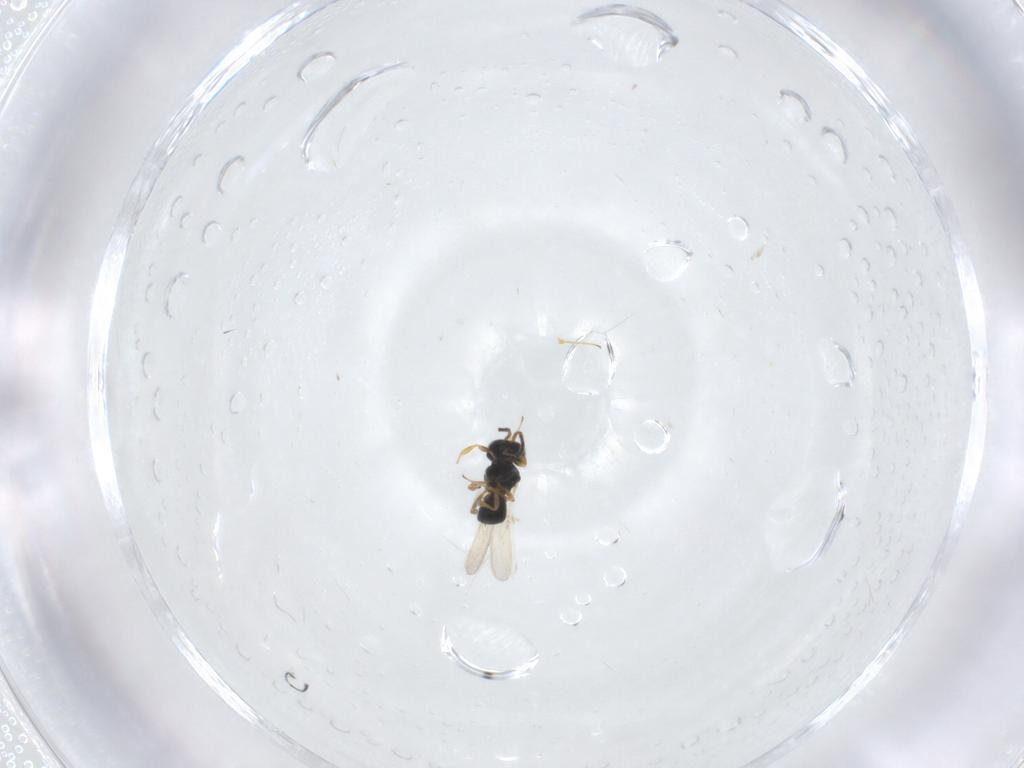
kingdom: Animalia
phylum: Arthropoda
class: Insecta
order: Hymenoptera
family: Scelionidae
